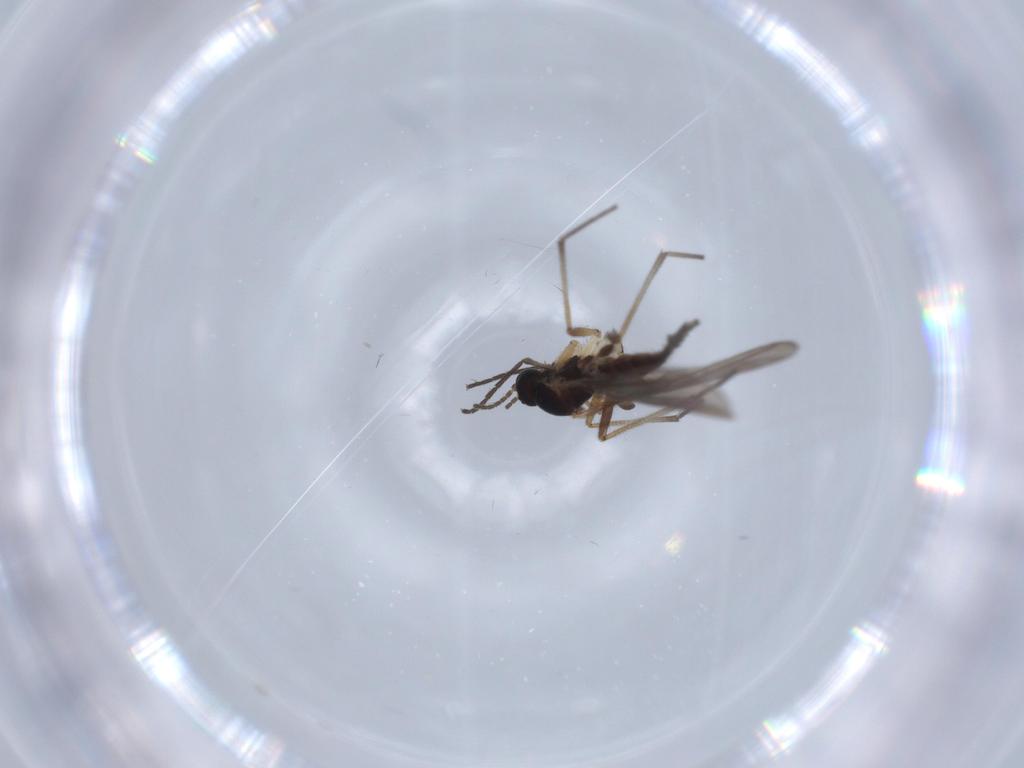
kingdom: Animalia
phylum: Arthropoda
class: Insecta
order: Diptera
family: Sciaridae
